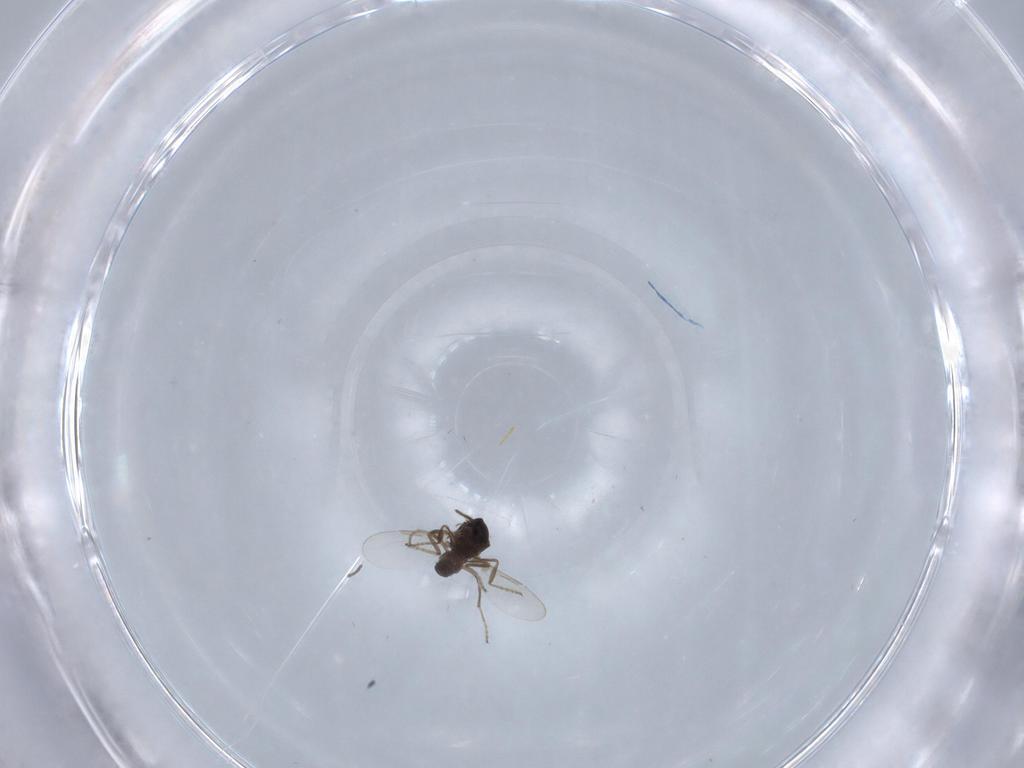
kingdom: Animalia
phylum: Arthropoda
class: Insecta
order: Diptera
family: Ceratopogonidae
